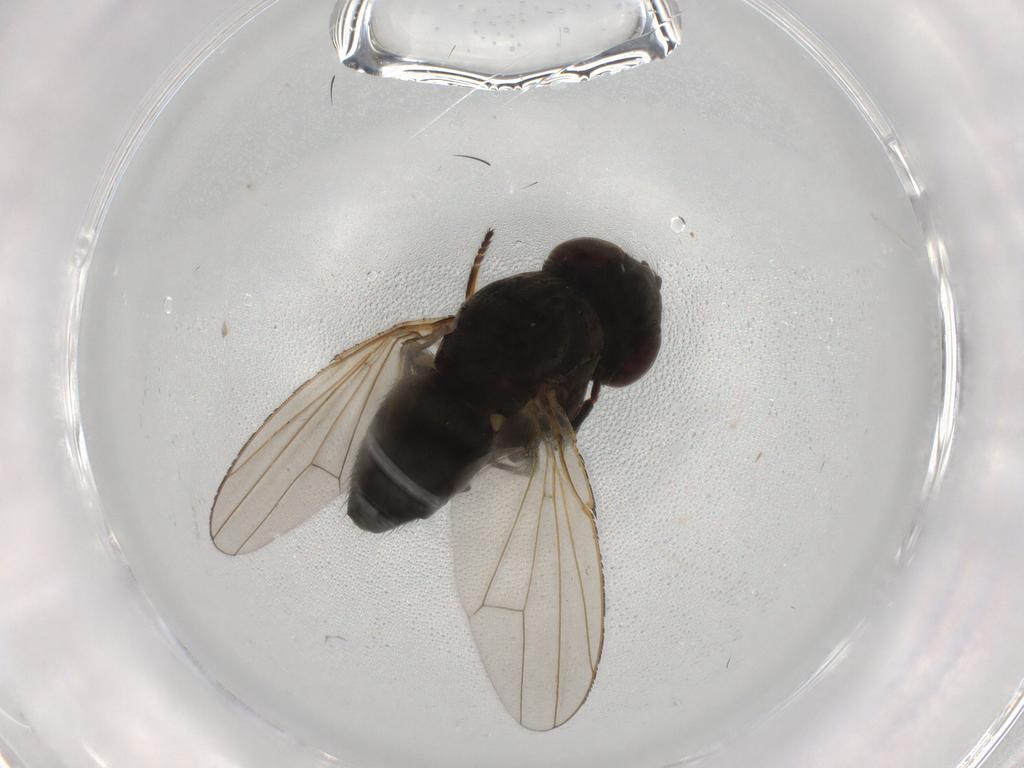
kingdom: Animalia
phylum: Arthropoda
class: Insecta
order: Diptera
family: Ephydridae
